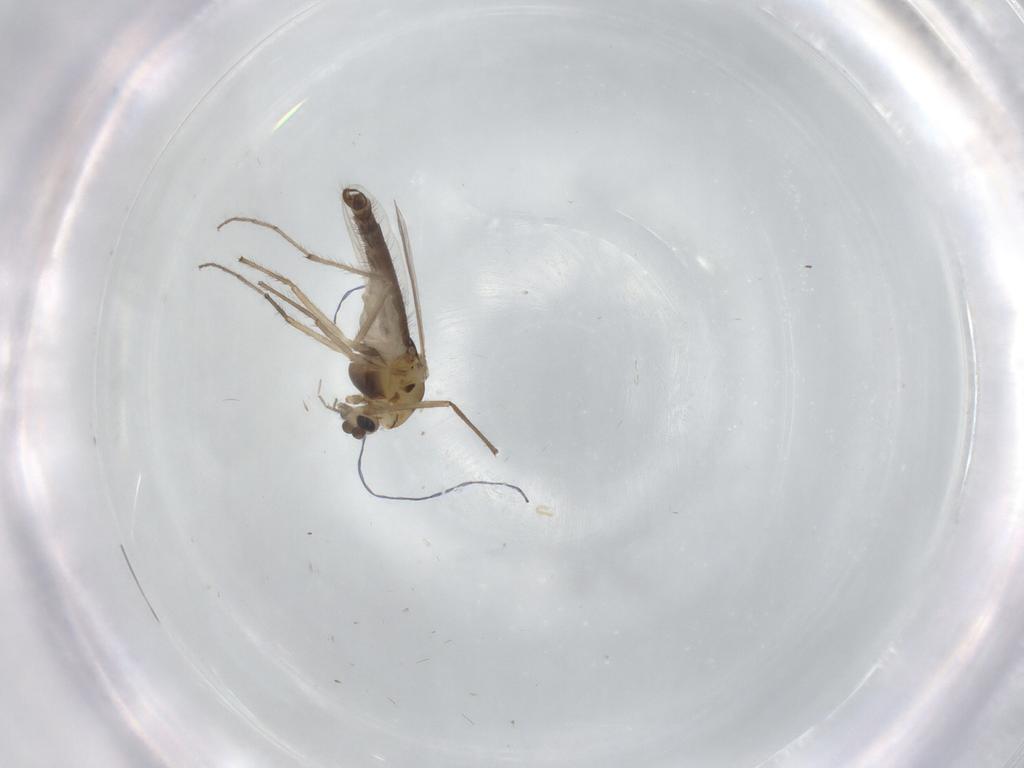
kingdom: Animalia
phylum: Arthropoda
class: Insecta
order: Diptera
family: Chironomidae
